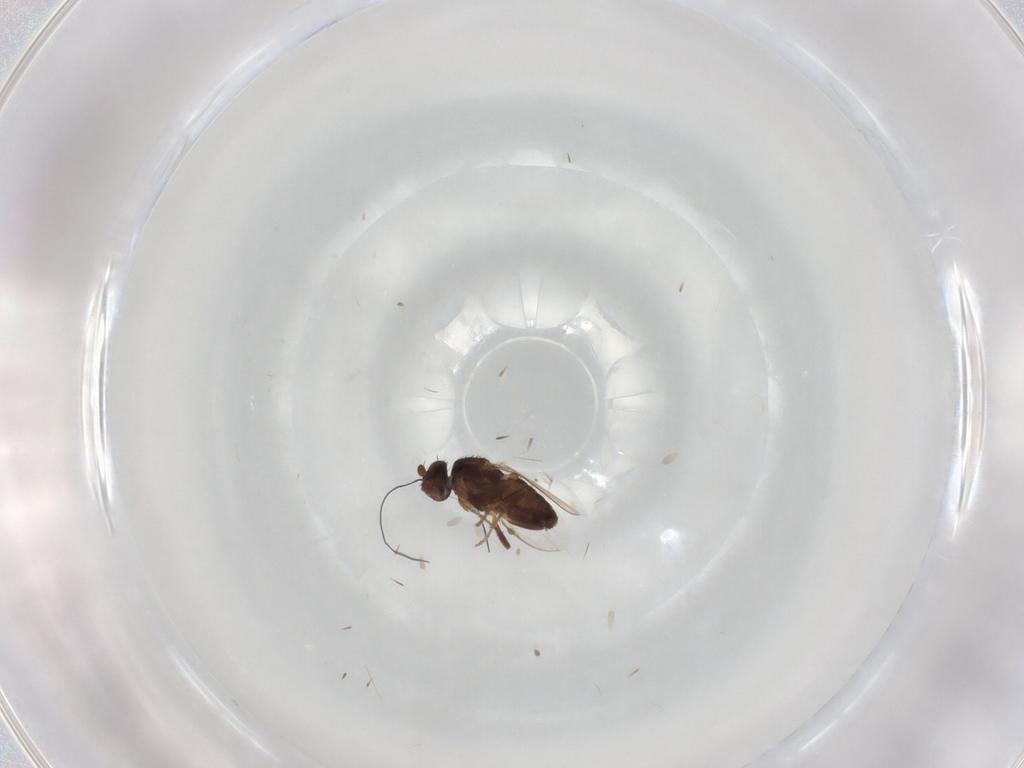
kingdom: Animalia
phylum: Arthropoda
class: Insecta
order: Diptera
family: Sphaeroceridae
